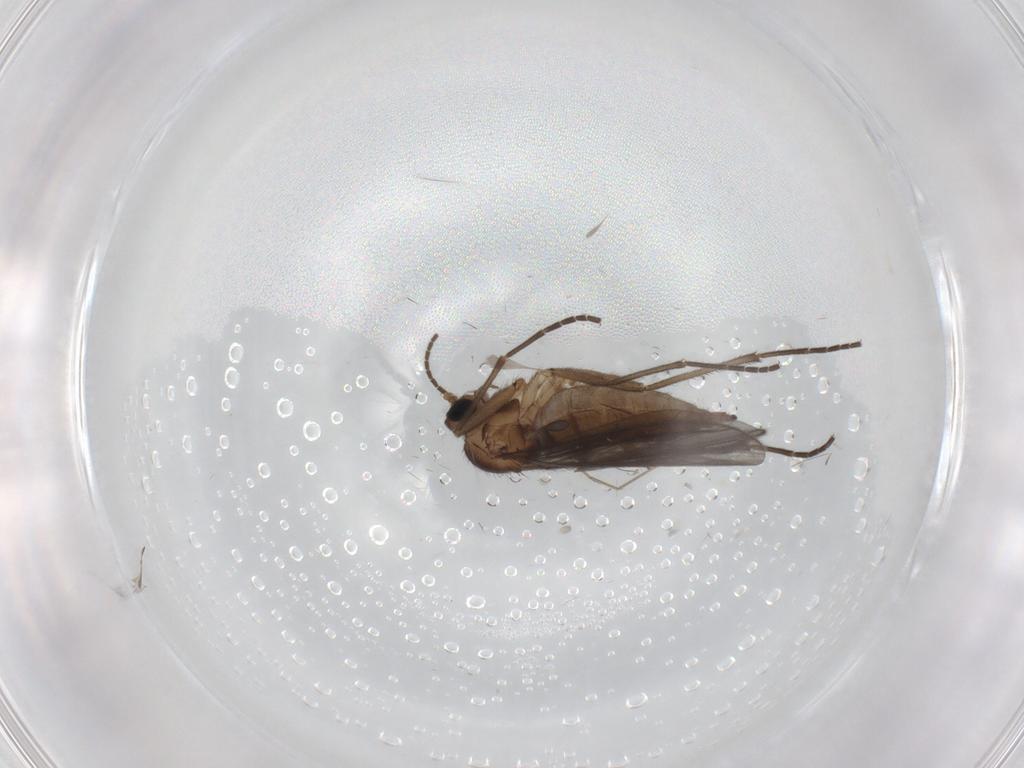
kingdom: Animalia
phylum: Arthropoda
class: Insecta
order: Diptera
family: Sciaridae
